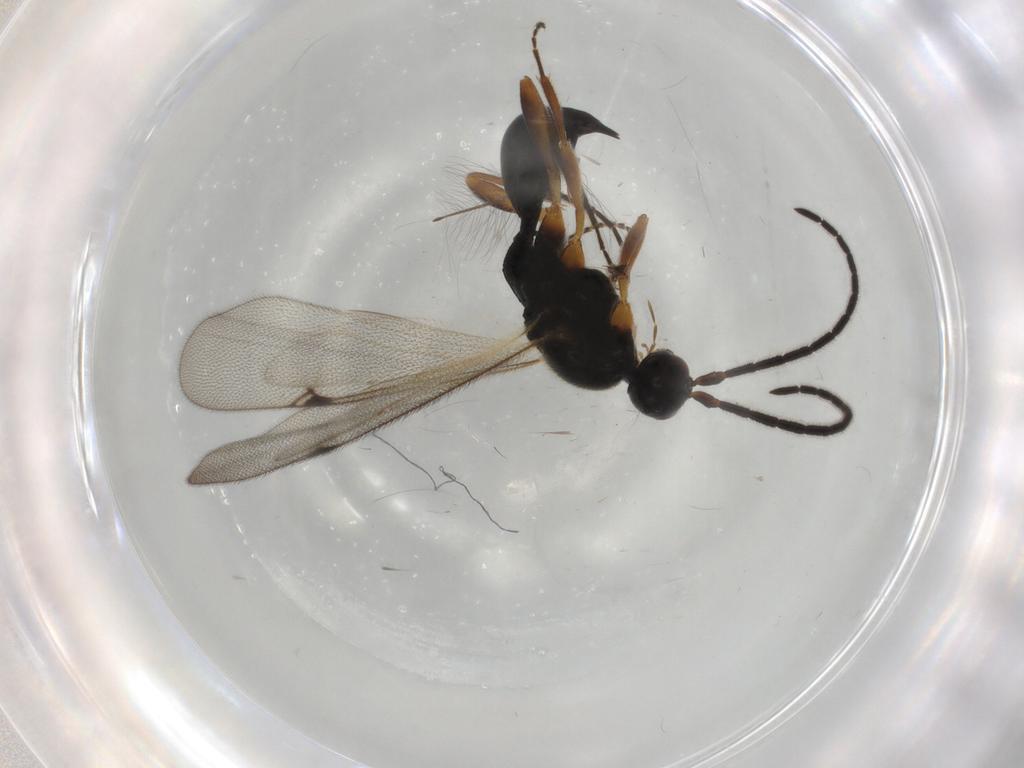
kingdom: Animalia
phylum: Arthropoda
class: Insecta
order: Hymenoptera
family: Proctotrupidae
